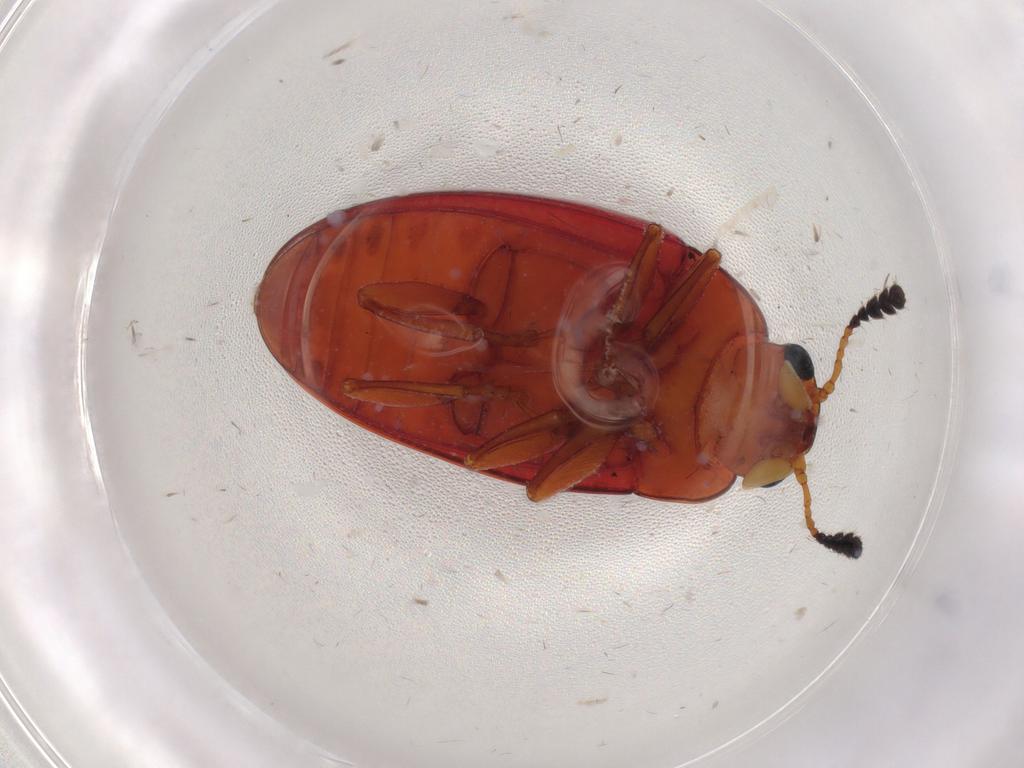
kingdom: Animalia
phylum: Arthropoda
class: Insecta
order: Coleoptera
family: Erotylidae
